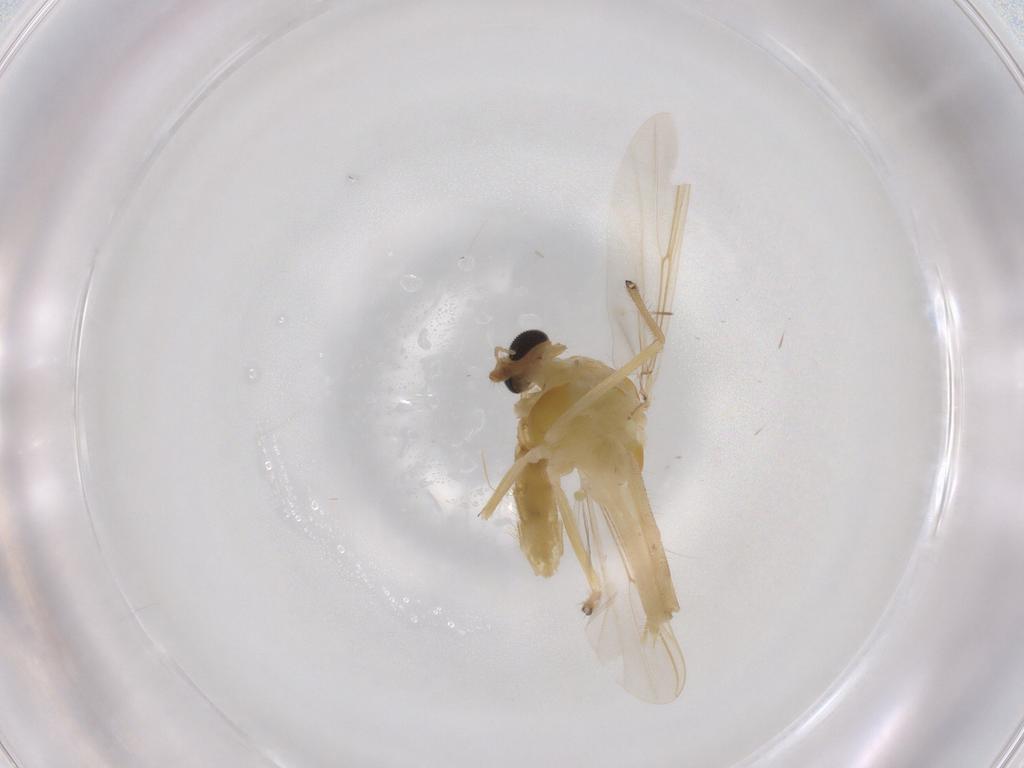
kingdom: Animalia
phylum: Arthropoda
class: Insecta
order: Diptera
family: Chironomidae
